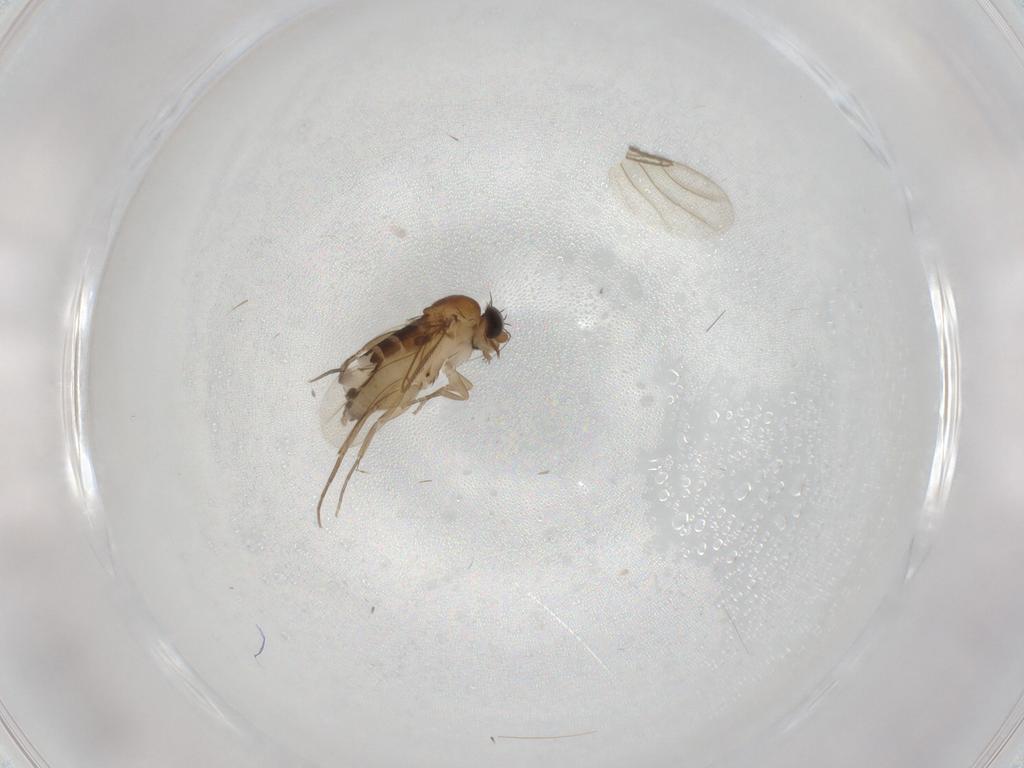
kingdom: Animalia
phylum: Arthropoda
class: Insecta
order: Diptera
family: Phoridae
